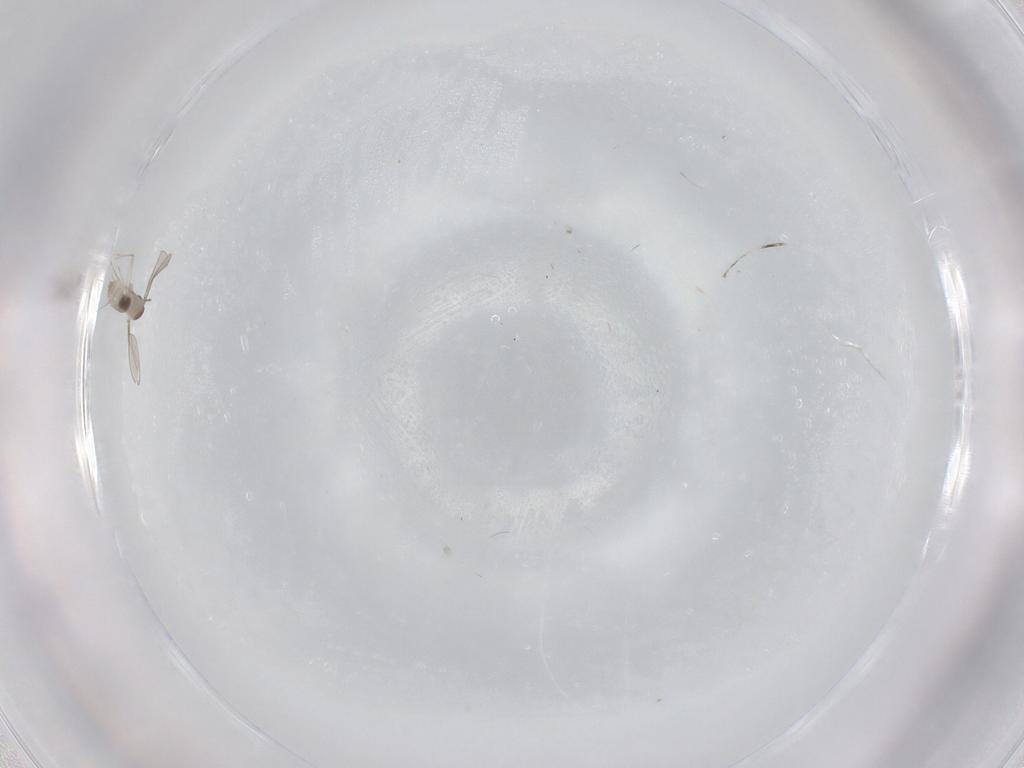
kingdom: Animalia
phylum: Arthropoda
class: Insecta
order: Diptera
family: Cecidomyiidae
